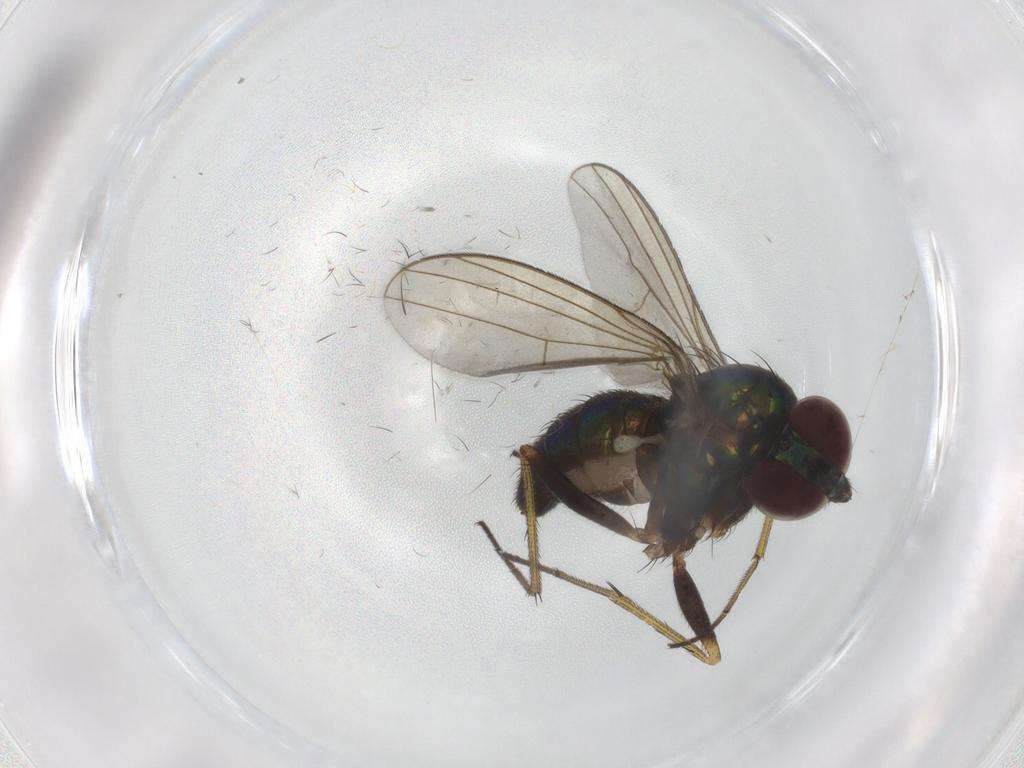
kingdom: Animalia
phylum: Arthropoda
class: Insecta
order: Diptera
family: Dolichopodidae
